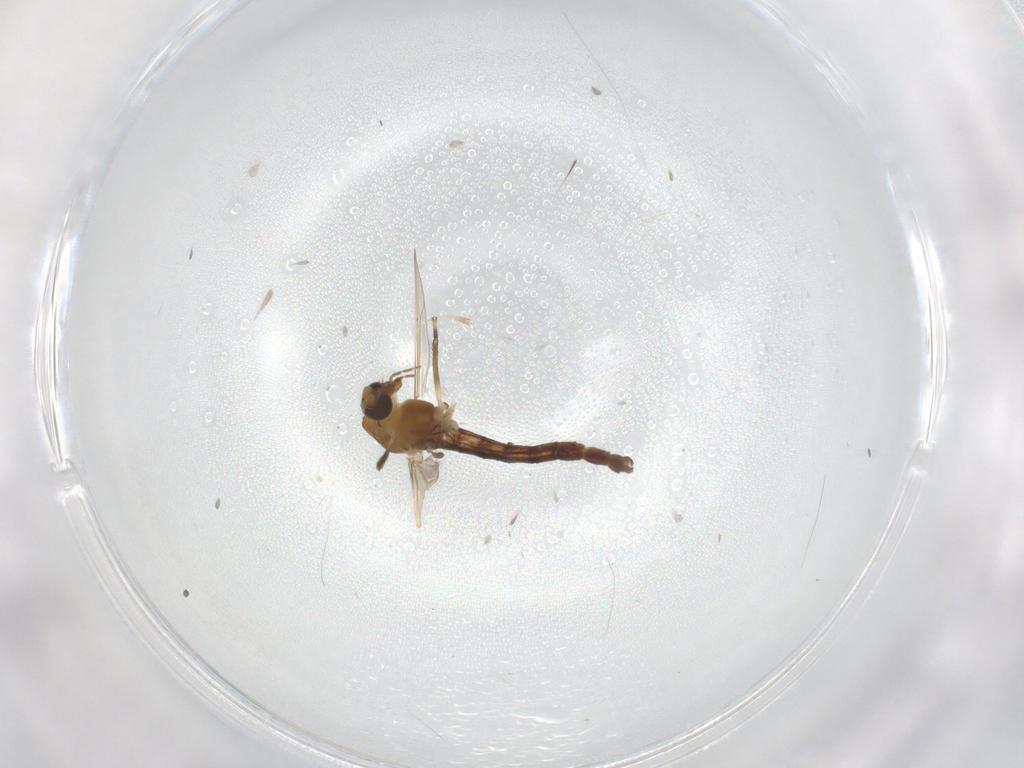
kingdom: Animalia
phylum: Arthropoda
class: Insecta
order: Diptera
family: Chironomidae
